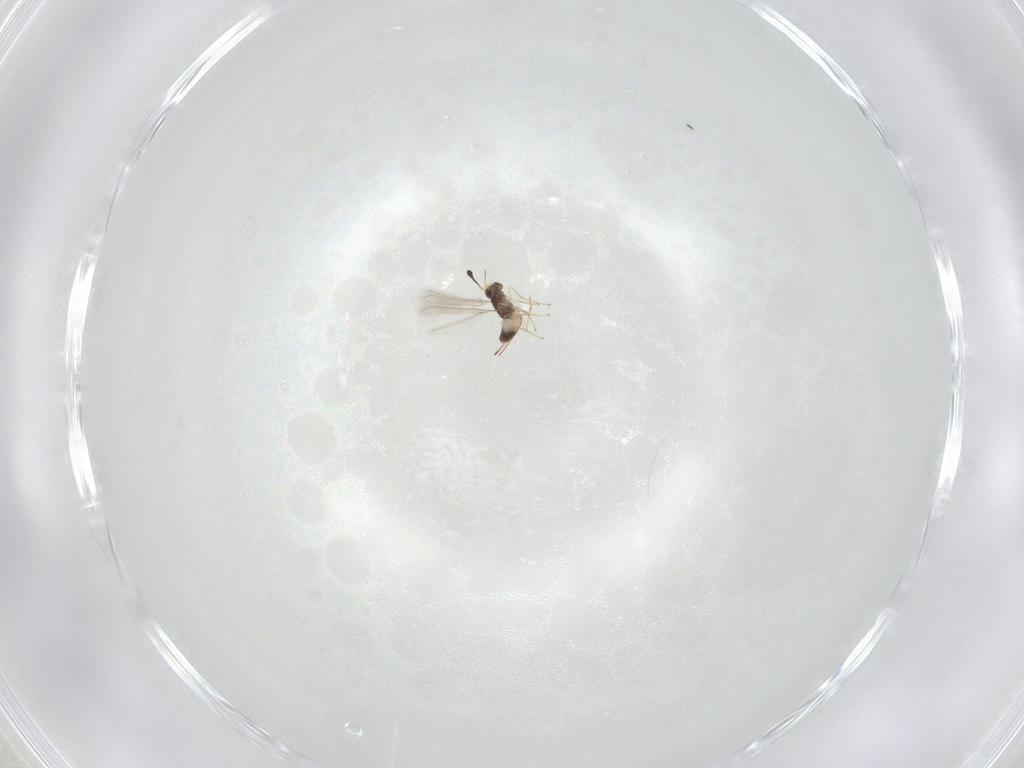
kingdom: Animalia
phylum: Arthropoda
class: Insecta
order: Hymenoptera
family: Mymaridae
